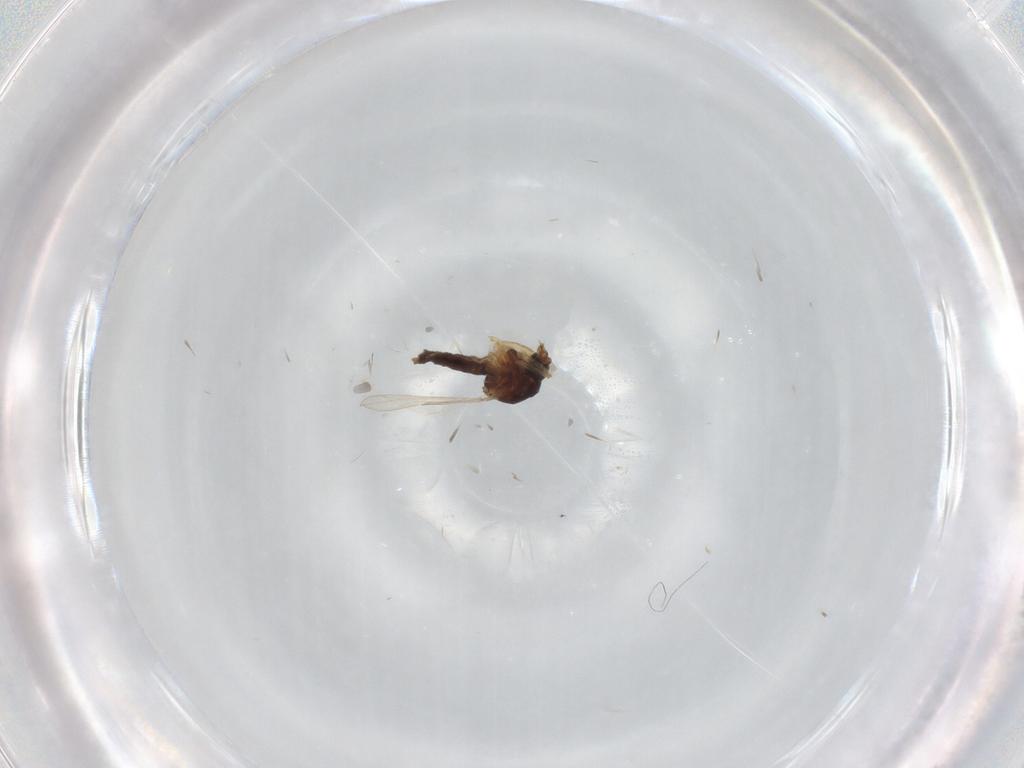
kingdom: Animalia
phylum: Arthropoda
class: Insecta
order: Diptera
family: Ceratopogonidae
